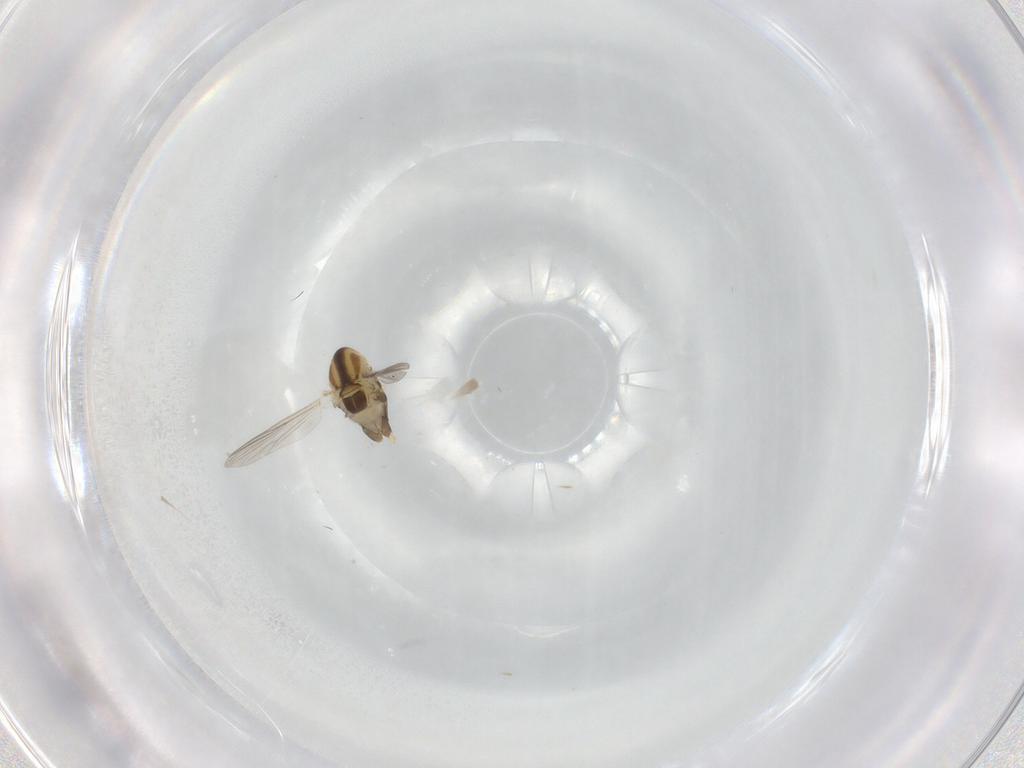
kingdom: Animalia
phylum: Arthropoda
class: Insecta
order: Diptera
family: Chironomidae
